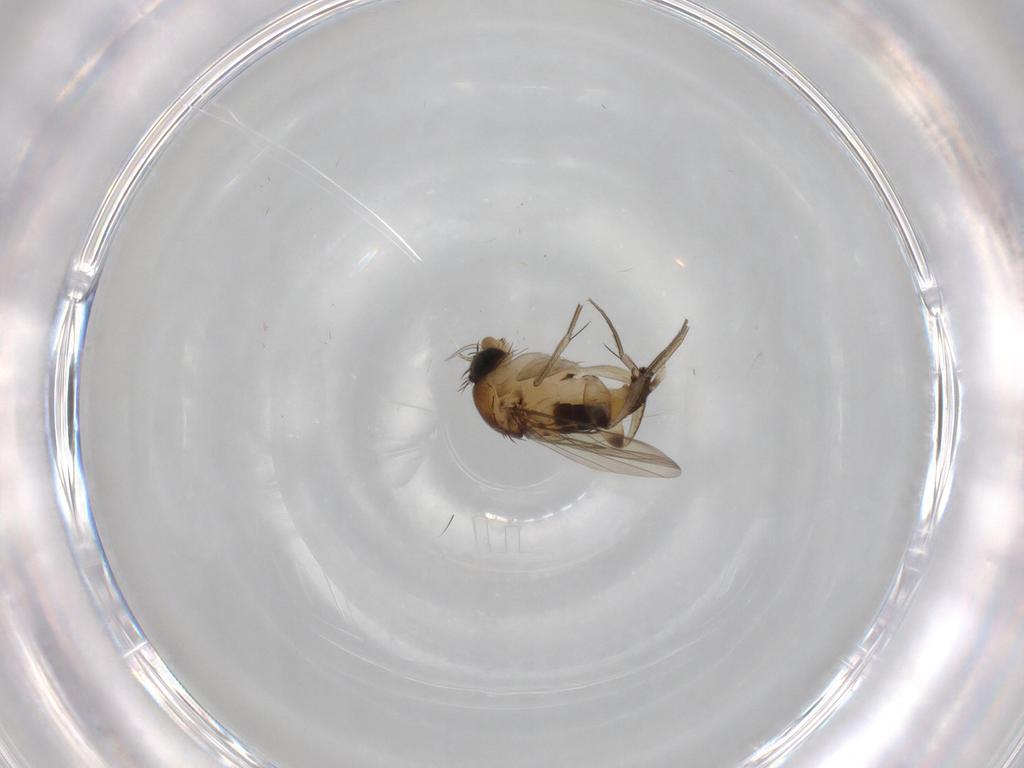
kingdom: Animalia
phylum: Arthropoda
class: Insecta
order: Diptera
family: Phoridae
